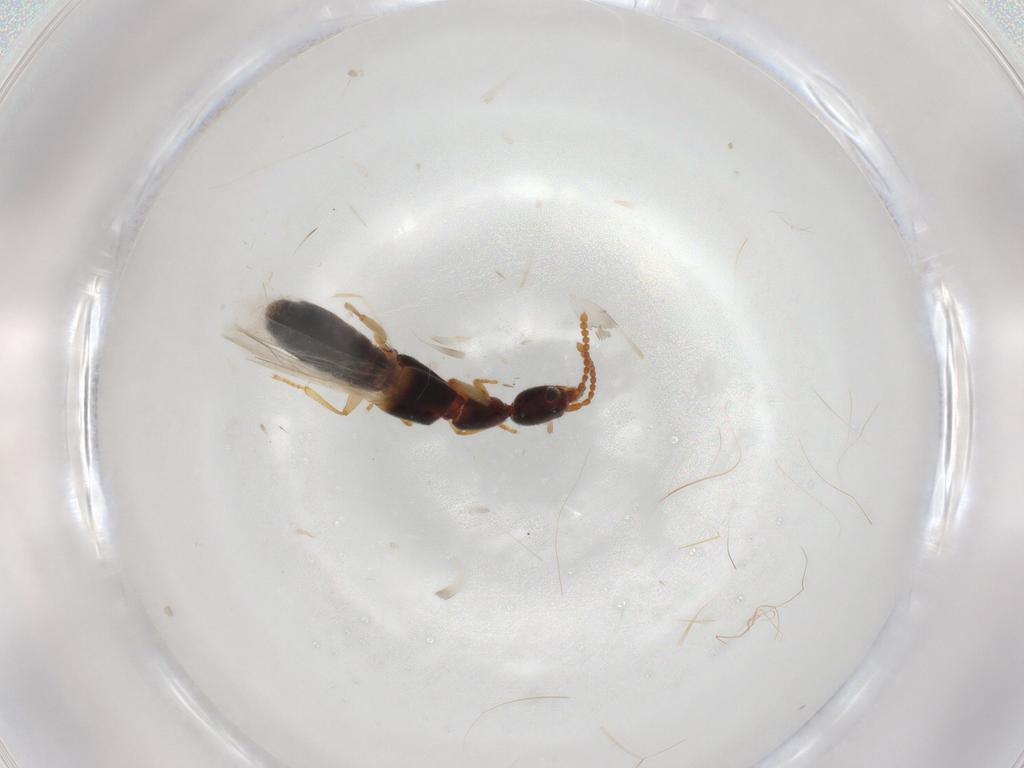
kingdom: Animalia
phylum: Arthropoda
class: Insecta
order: Coleoptera
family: Staphylinidae
